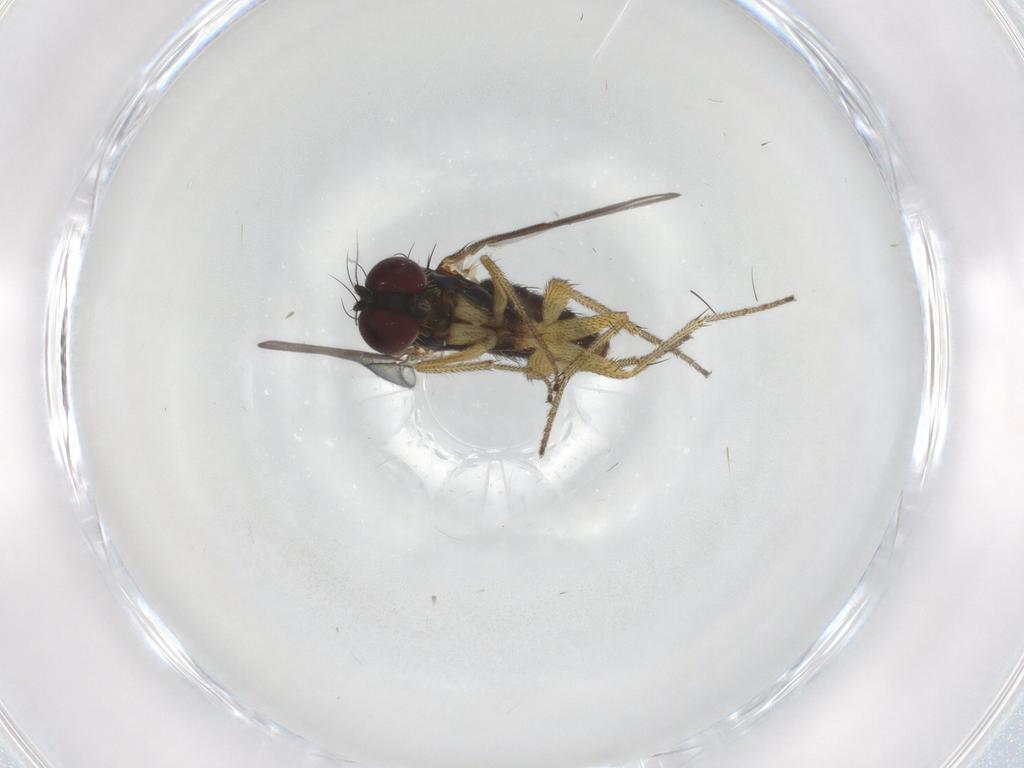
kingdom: Animalia
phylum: Arthropoda
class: Insecta
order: Diptera
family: Dolichopodidae
